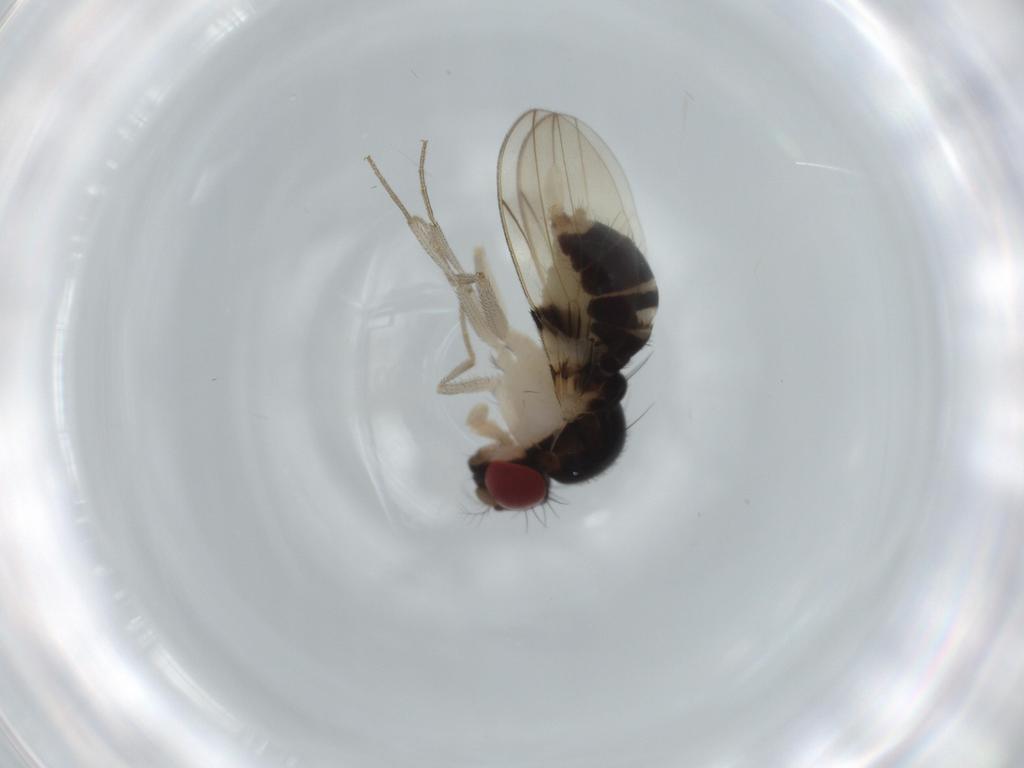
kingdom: Animalia
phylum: Arthropoda
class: Insecta
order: Diptera
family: Drosophilidae
